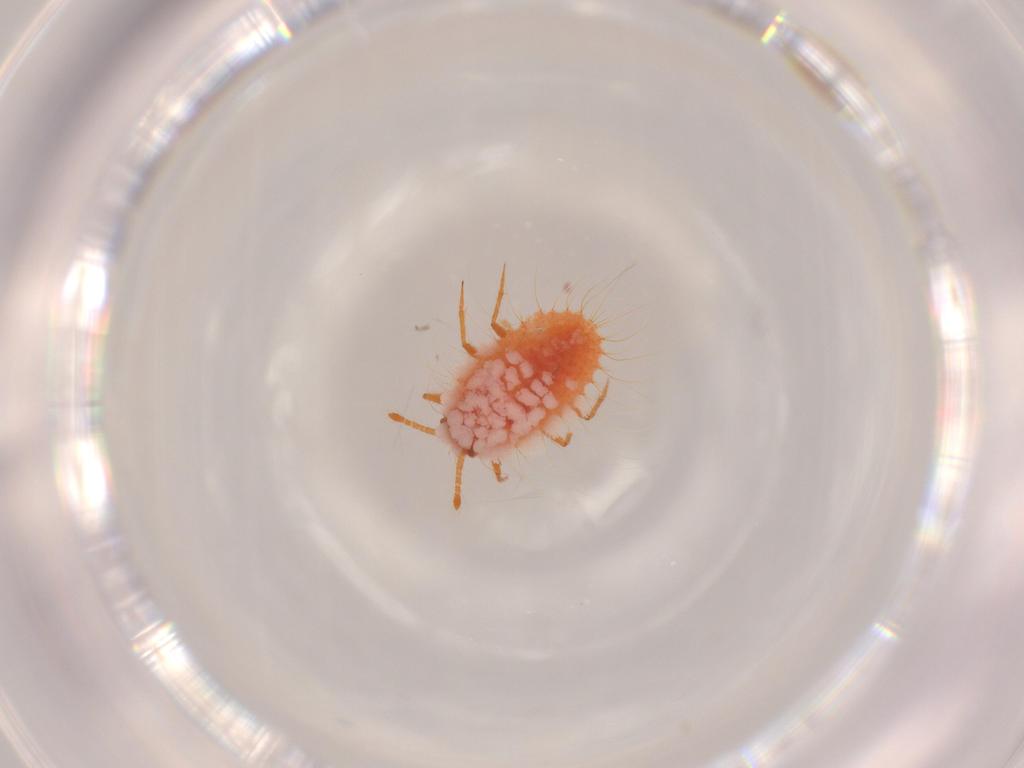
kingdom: Animalia
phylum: Arthropoda
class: Insecta
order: Hemiptera
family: Coccoidea_incertae_sedis
